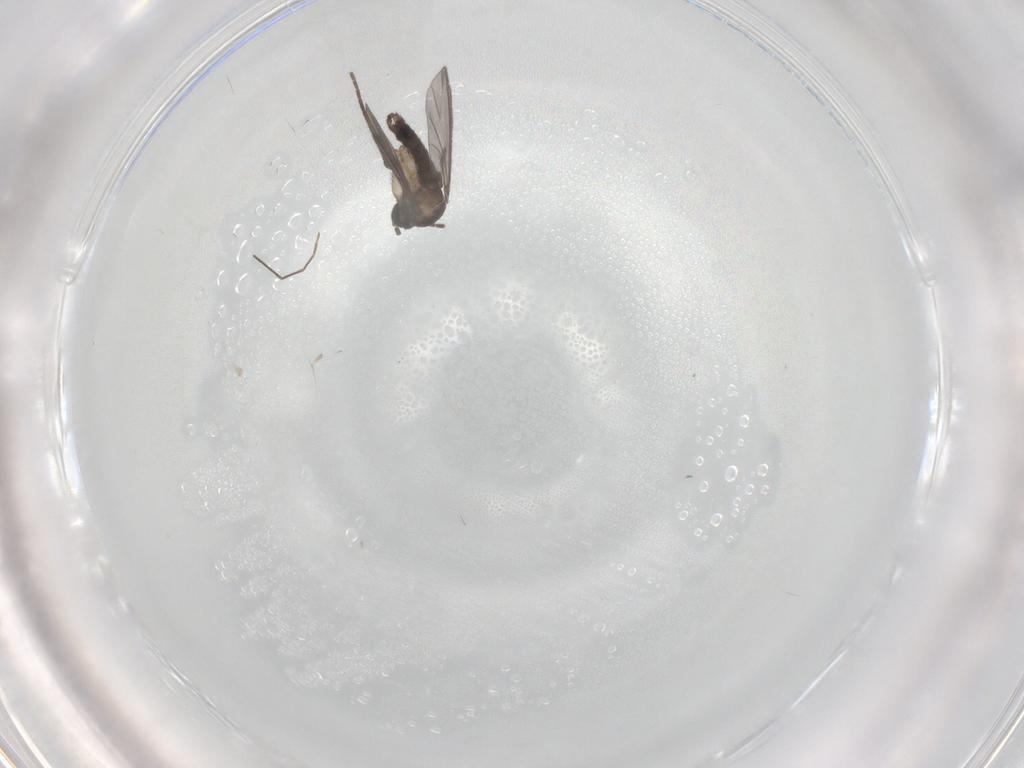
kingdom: Animalia
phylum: Arthropoda
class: Insecta
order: Diptera
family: Sciaridae
